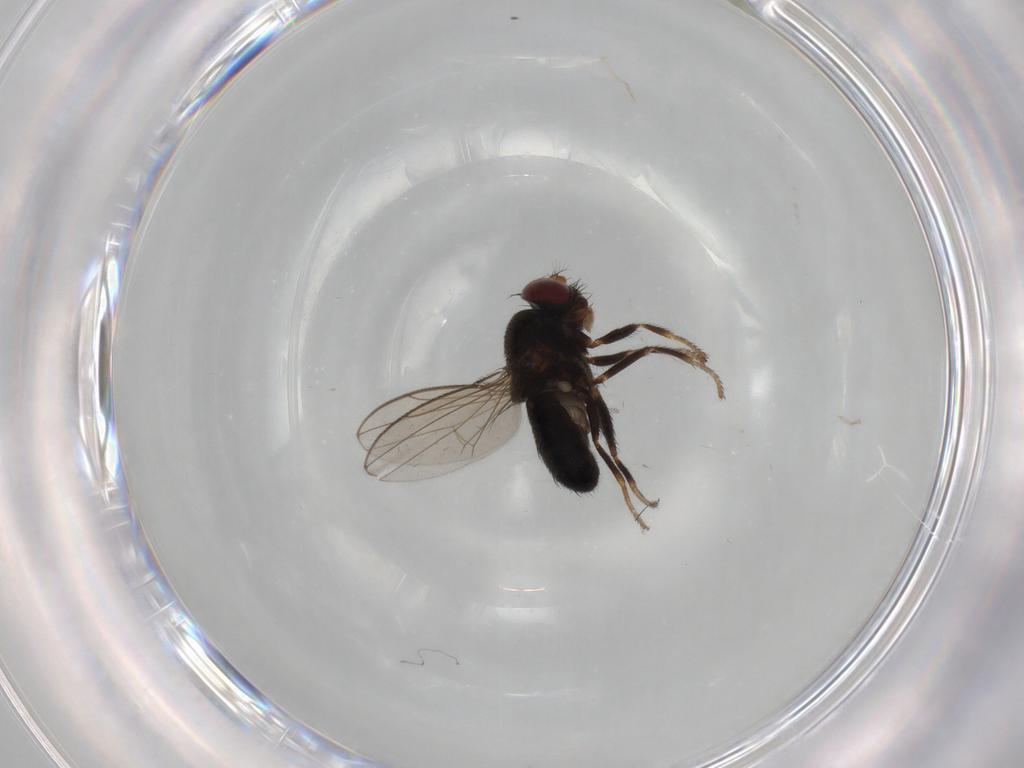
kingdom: Animalia
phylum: Arthropoda
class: Insecta
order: Diptera
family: Ephydridae
